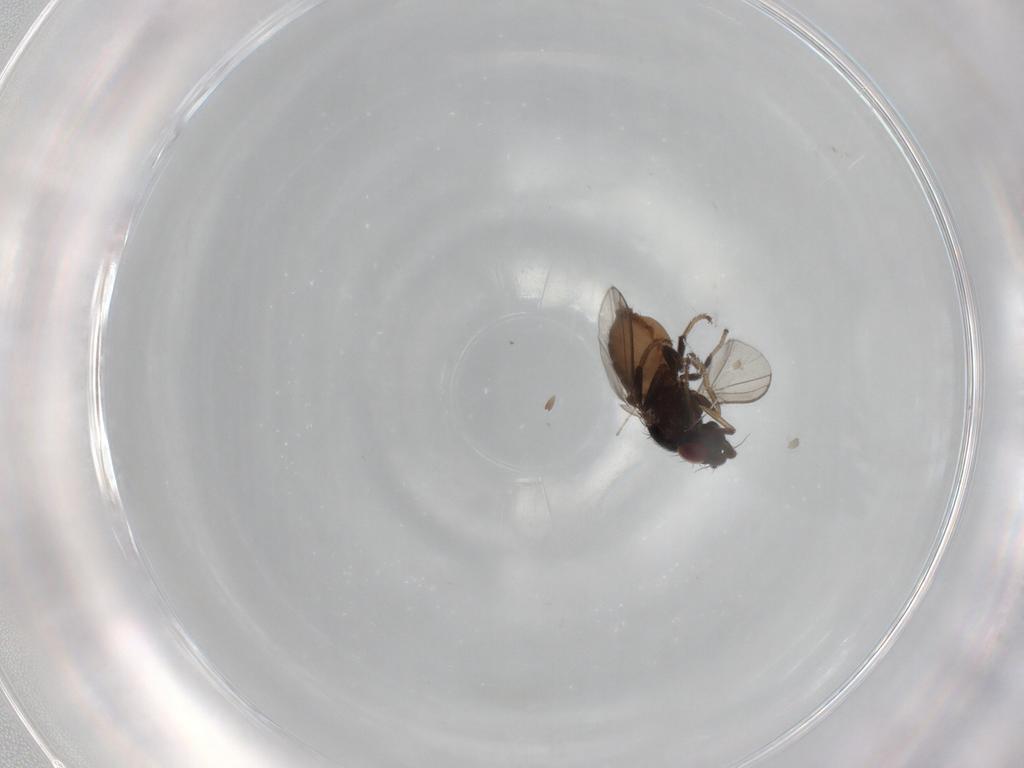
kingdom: Animalia
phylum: Arthropoda
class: Insecta
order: Diptera
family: Milichiidae
